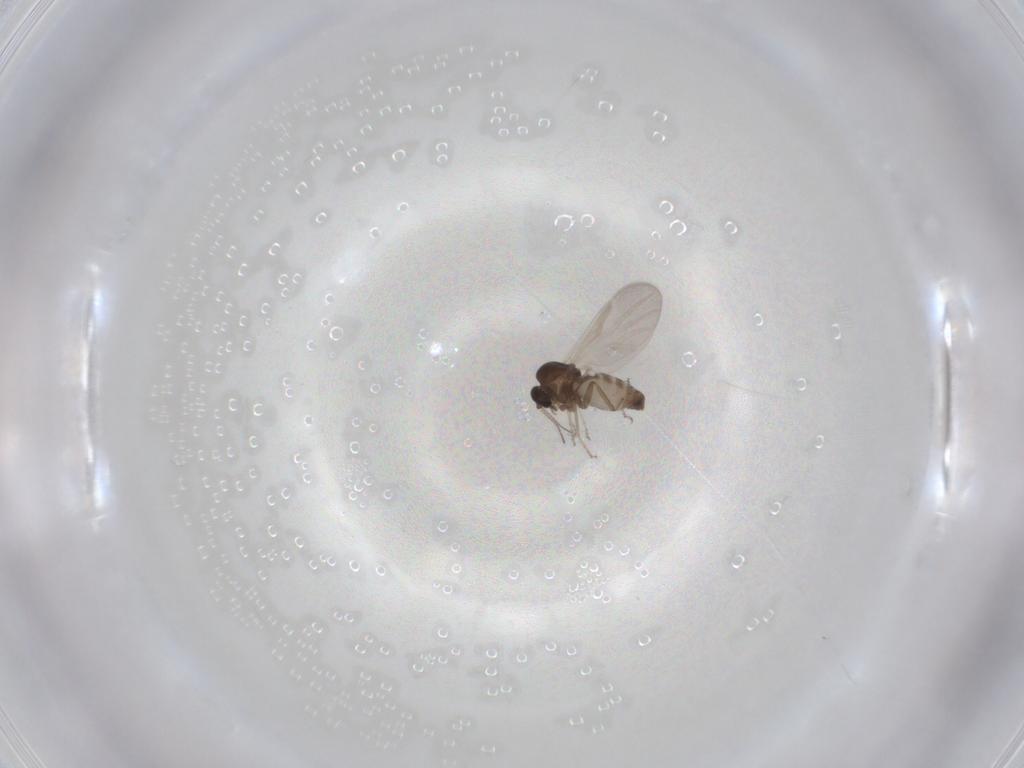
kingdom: Animalia
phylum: Arthropoda
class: Insecta
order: Diptera
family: Ceratopogonidae
